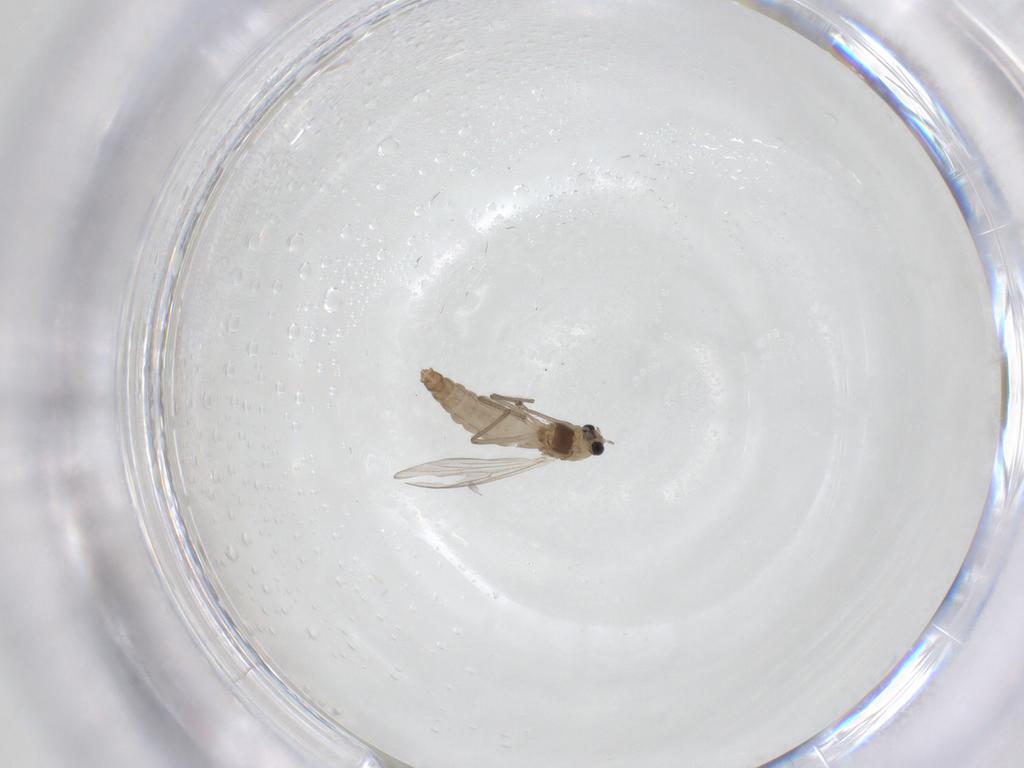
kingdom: Animalia
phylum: Arthropoda
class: Insecta
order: Diptera
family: Chironomidae
